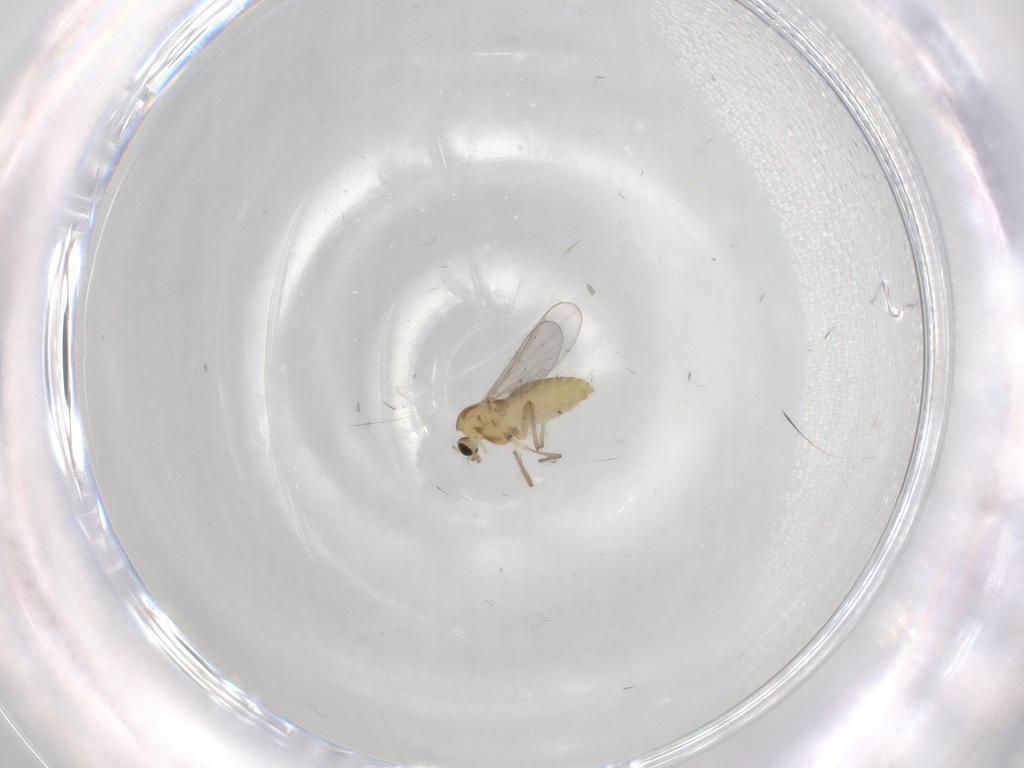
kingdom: Animalia
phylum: Arthropoda
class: Insecta
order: Diptera
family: Chironomidae
